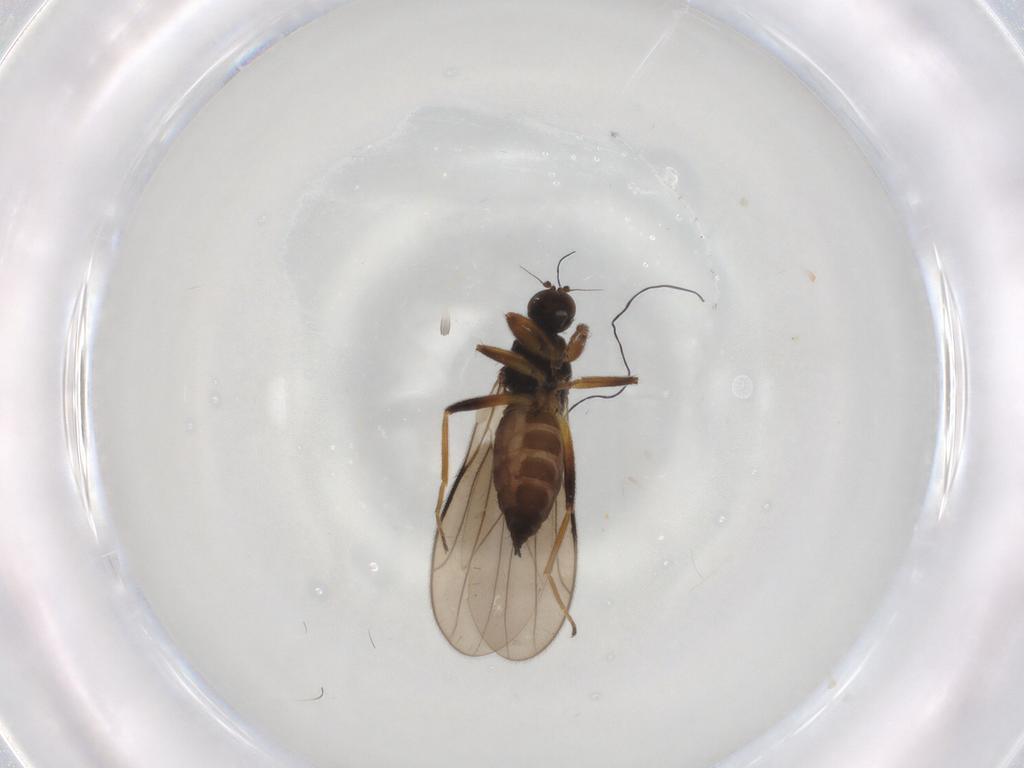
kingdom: Animalia
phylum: Arthropoda
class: Insecta
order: Diptera
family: Hybotidae
